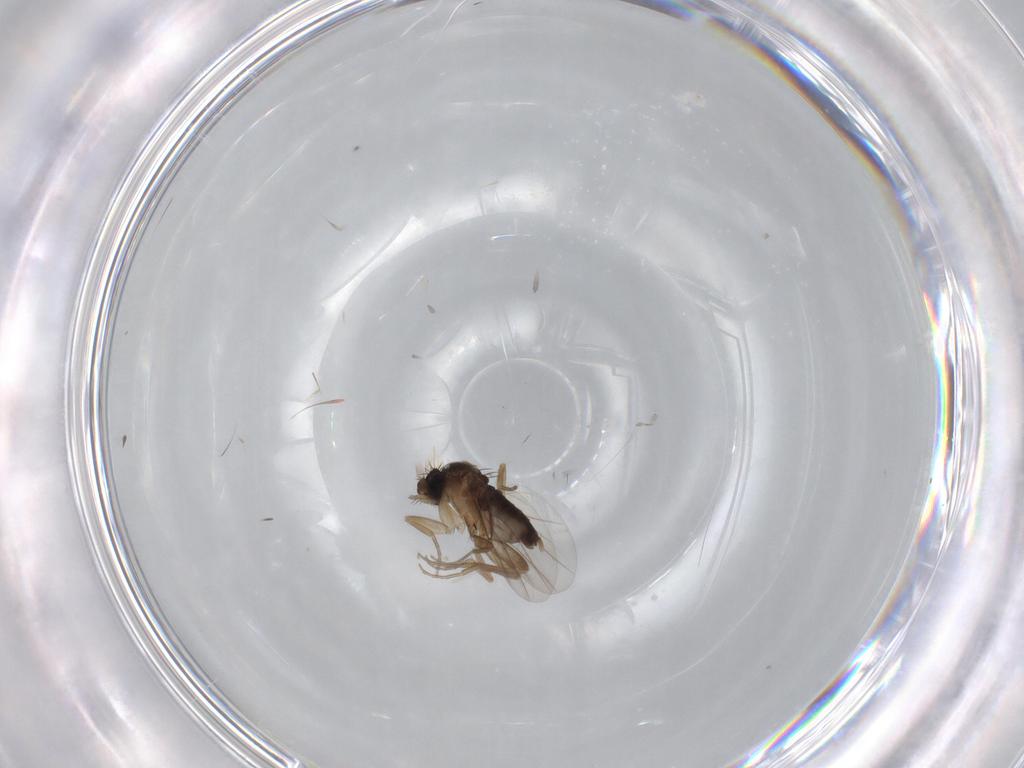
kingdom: Animalia
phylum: Arthropoda
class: Insecta
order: Diptera
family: Phoridae
